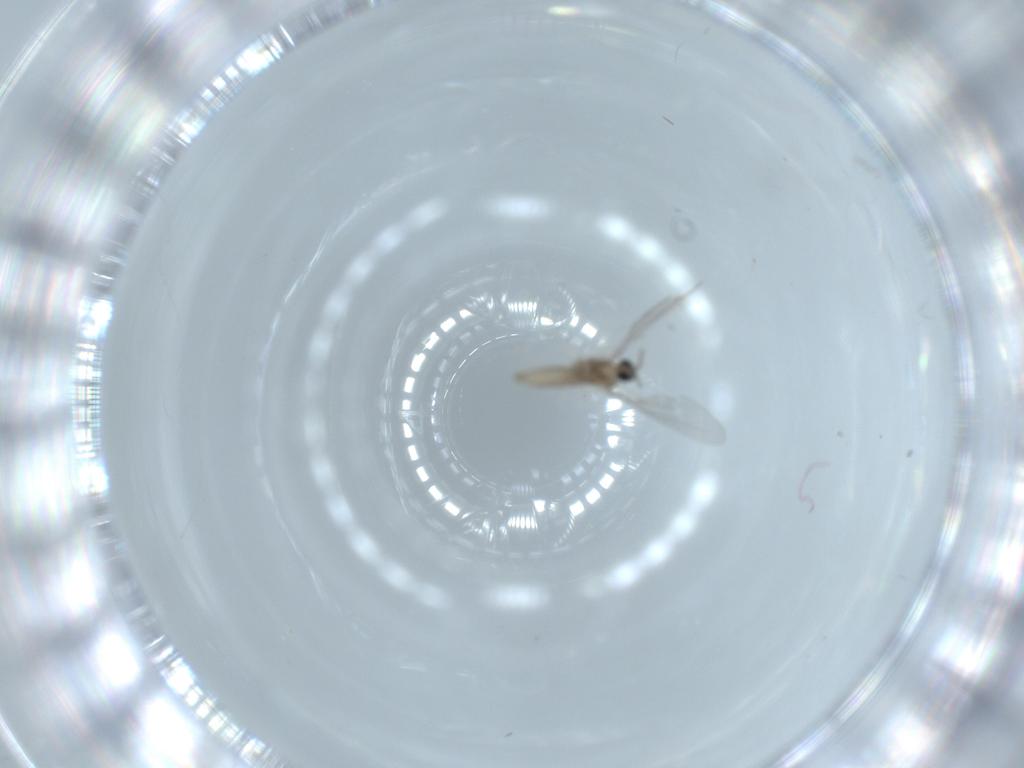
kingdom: Animalia
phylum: Arthropoda
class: Insecta
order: Diptera
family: Cecidomyiidae
